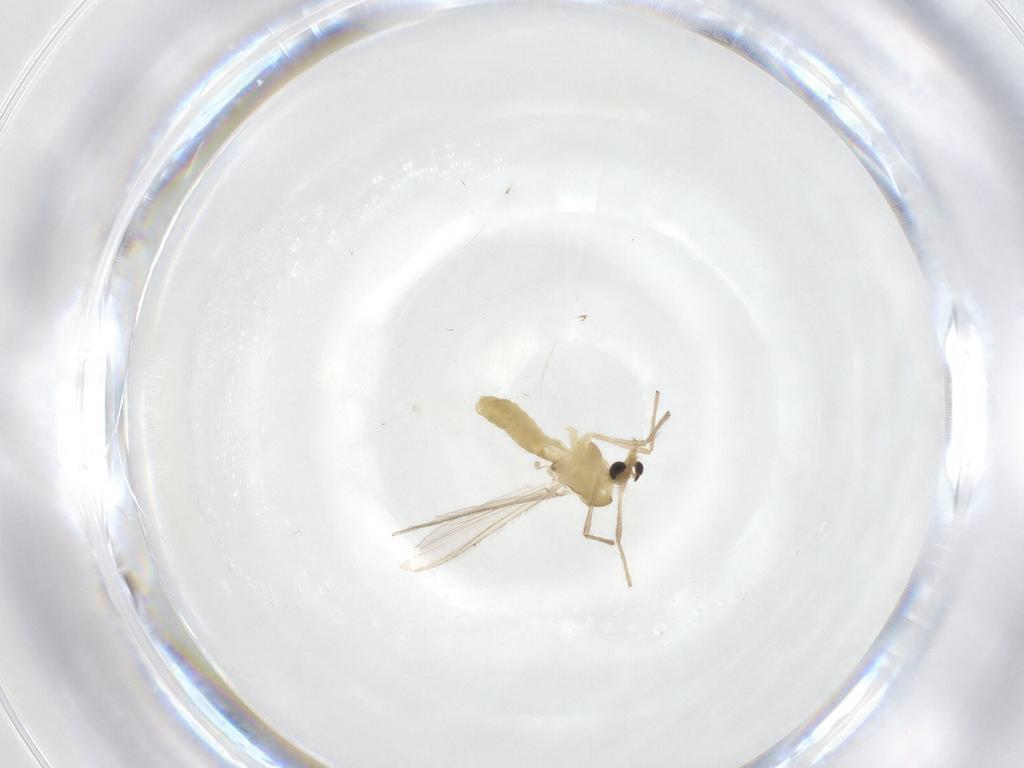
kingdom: Animalia
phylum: Arthropoda
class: Insecta
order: Diptera
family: Chironomidae
